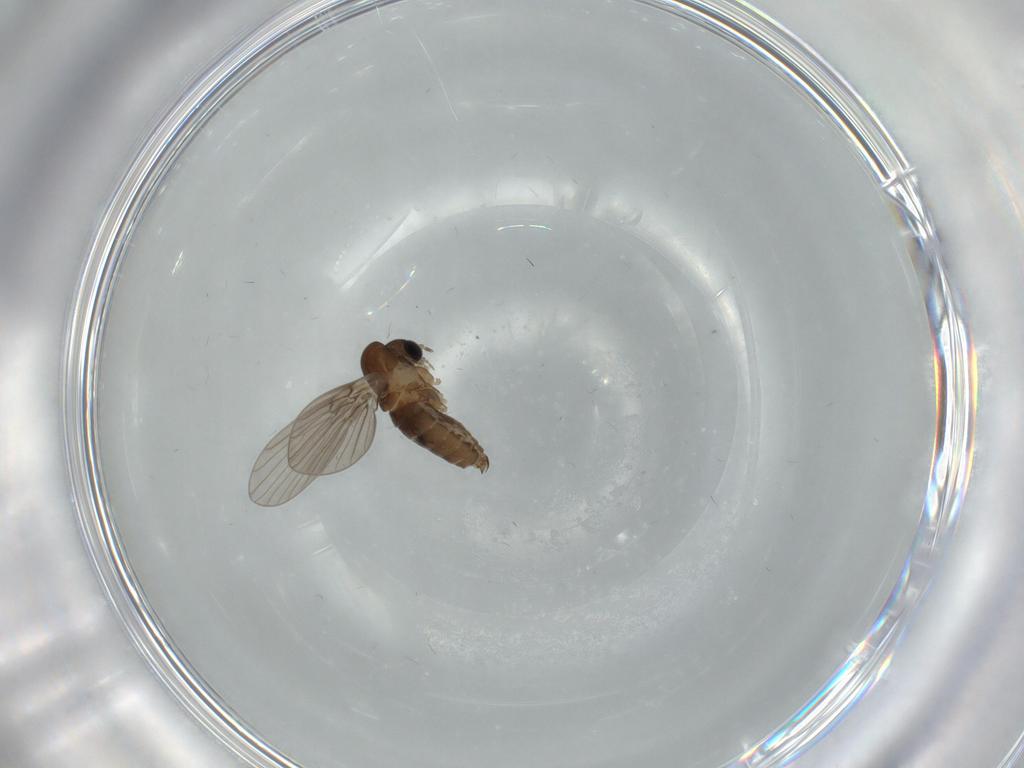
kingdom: Animalia
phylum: Arthropoda
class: Insecta
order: Diptera
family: Psychodidae
